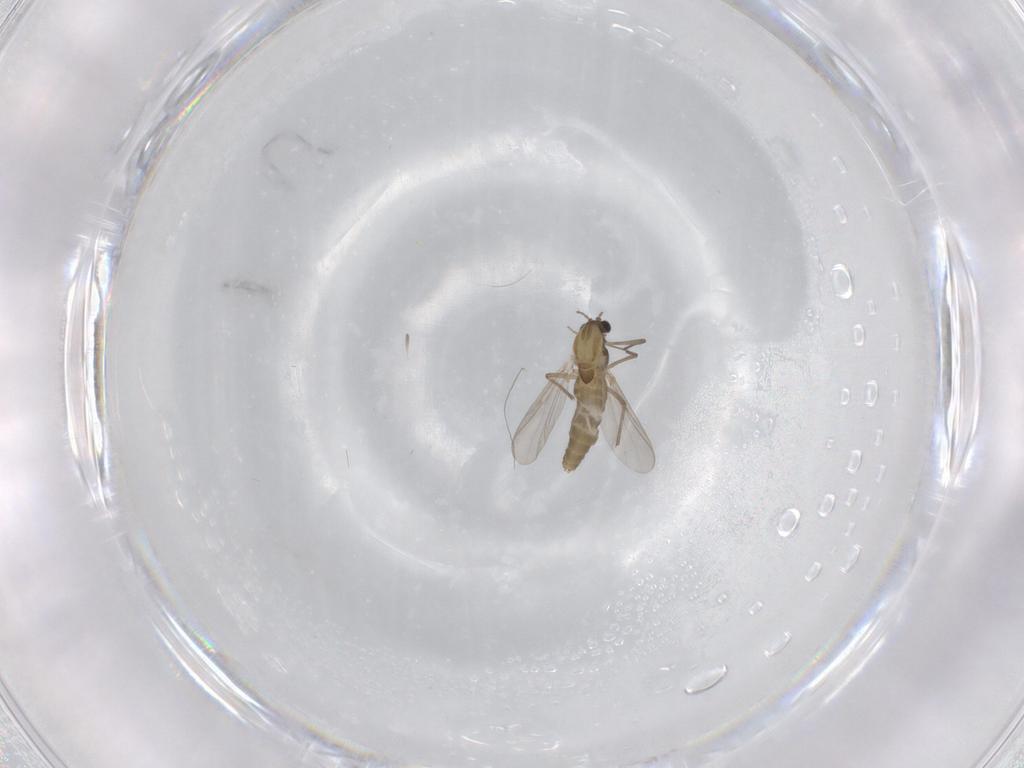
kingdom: Animalia
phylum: Arthropoda
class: Insecta
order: Diptera
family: Chironomidae
